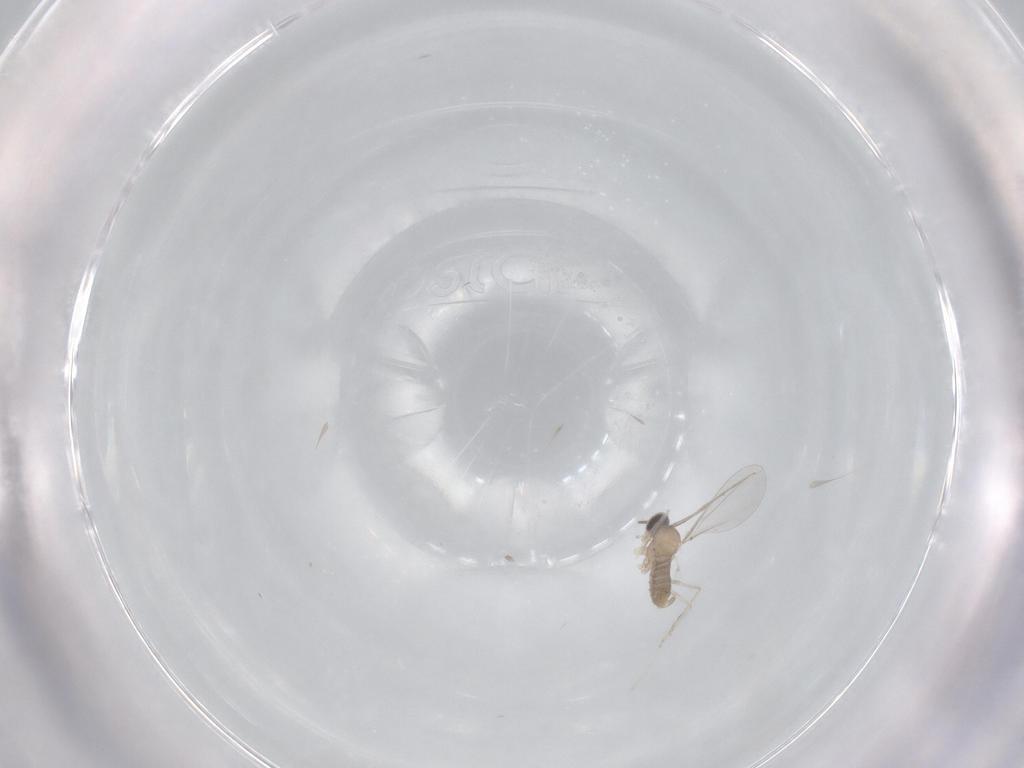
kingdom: Animalia
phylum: Arthropoda
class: Insecta
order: Diptera
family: Cecidomyiidae
